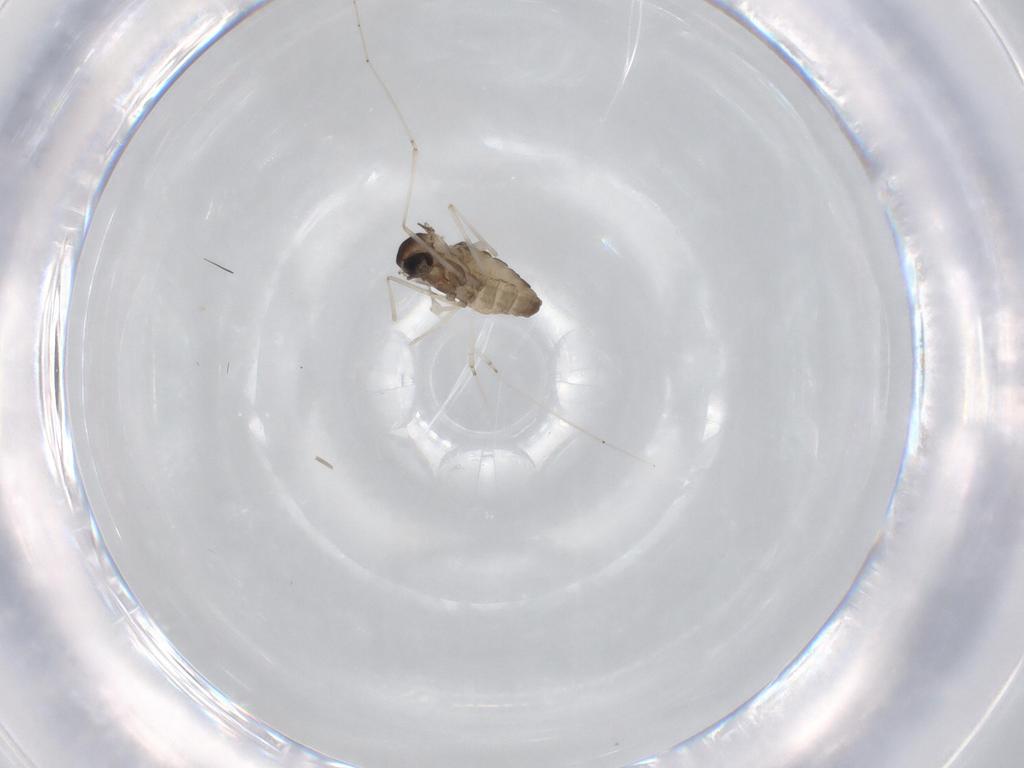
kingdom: Animalia
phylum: Arthropoda
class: Insecta
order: Diptera
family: Cecidomyiidae
